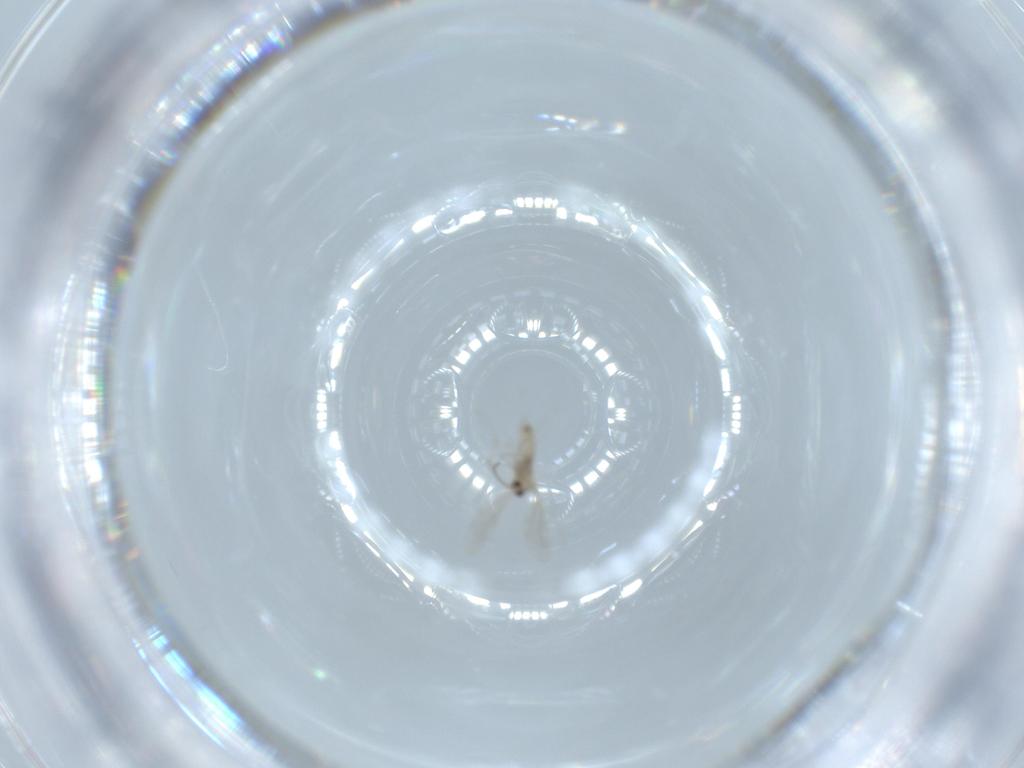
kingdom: Animalia
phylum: Arthropoda
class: Insecta
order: Diptera
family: Cecidomyiidae
